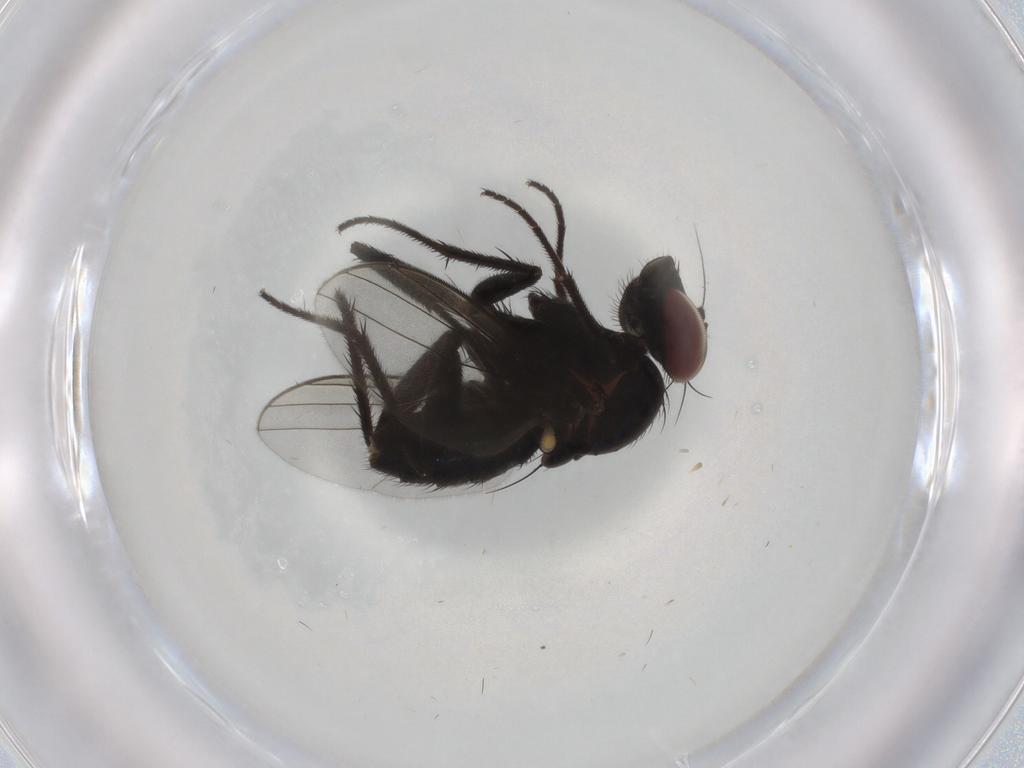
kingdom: Animalia
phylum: Arthropoda
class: Insecta
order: Diptera
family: Dolichopodidae
